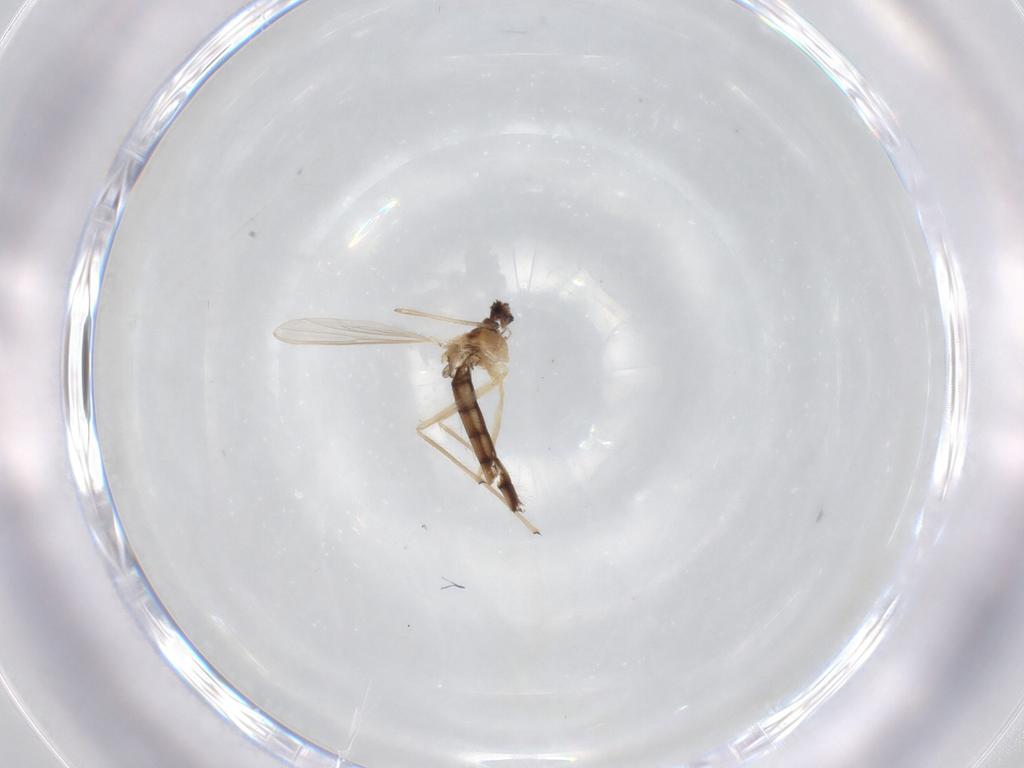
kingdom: Animalia
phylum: Arthropoda
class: Insecta
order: Diptera
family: Chironomidae
